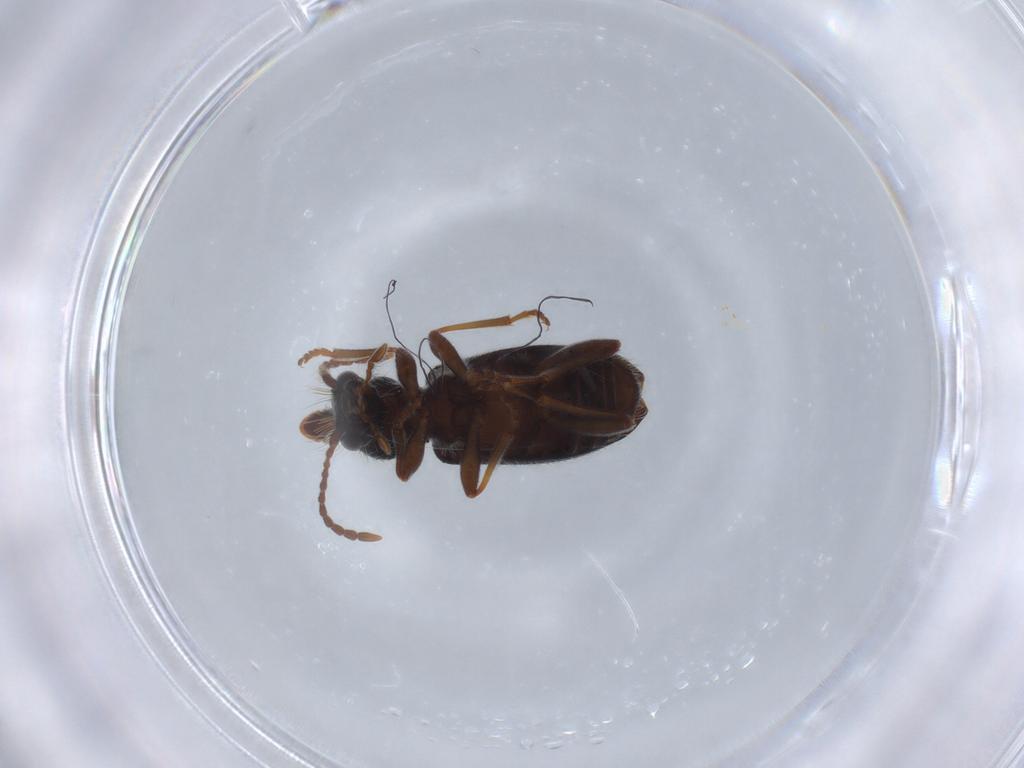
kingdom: Animalia
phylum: Arthropoda
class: Insecta
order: Coleoptera
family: Anthicidae
